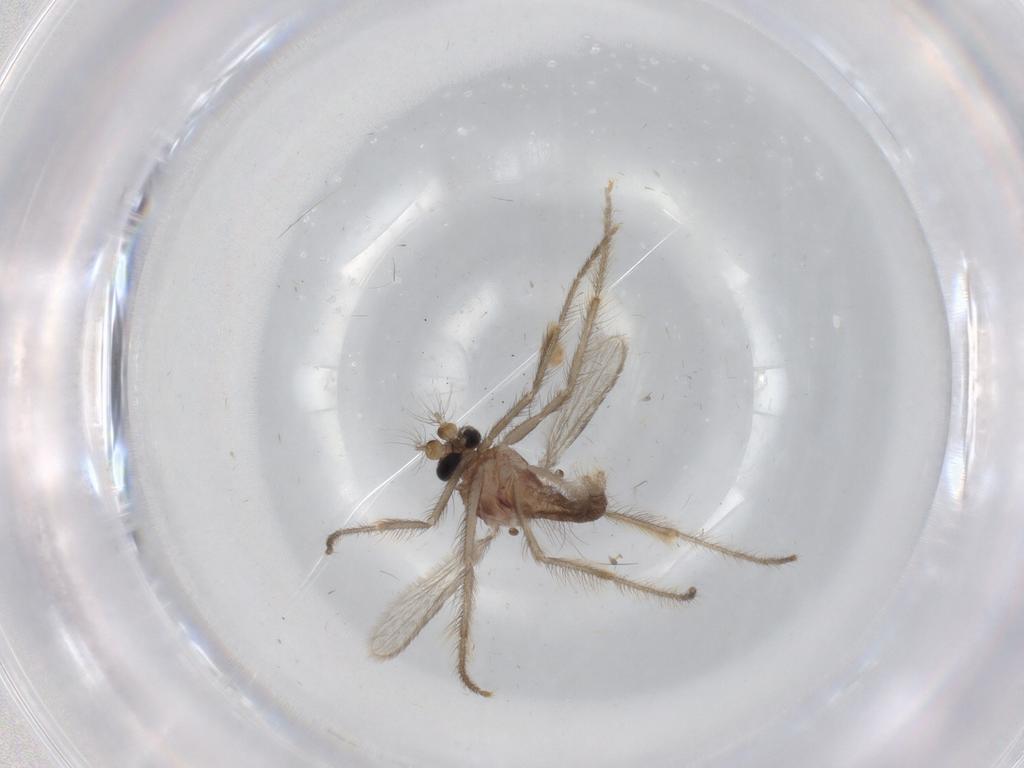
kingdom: Animalia
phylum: Arthropoda
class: Insecta
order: Diptera
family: Corethrellidae
